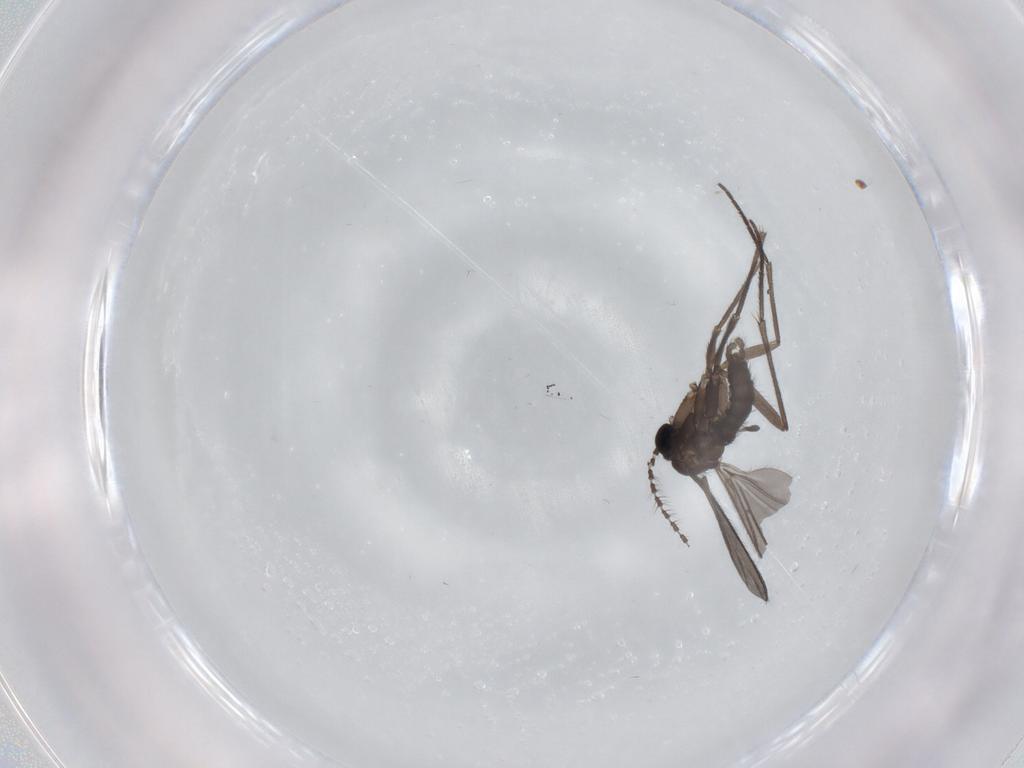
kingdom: Animalia
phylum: Arthropoda
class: Insecta
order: Diptera
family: Sciaridae
